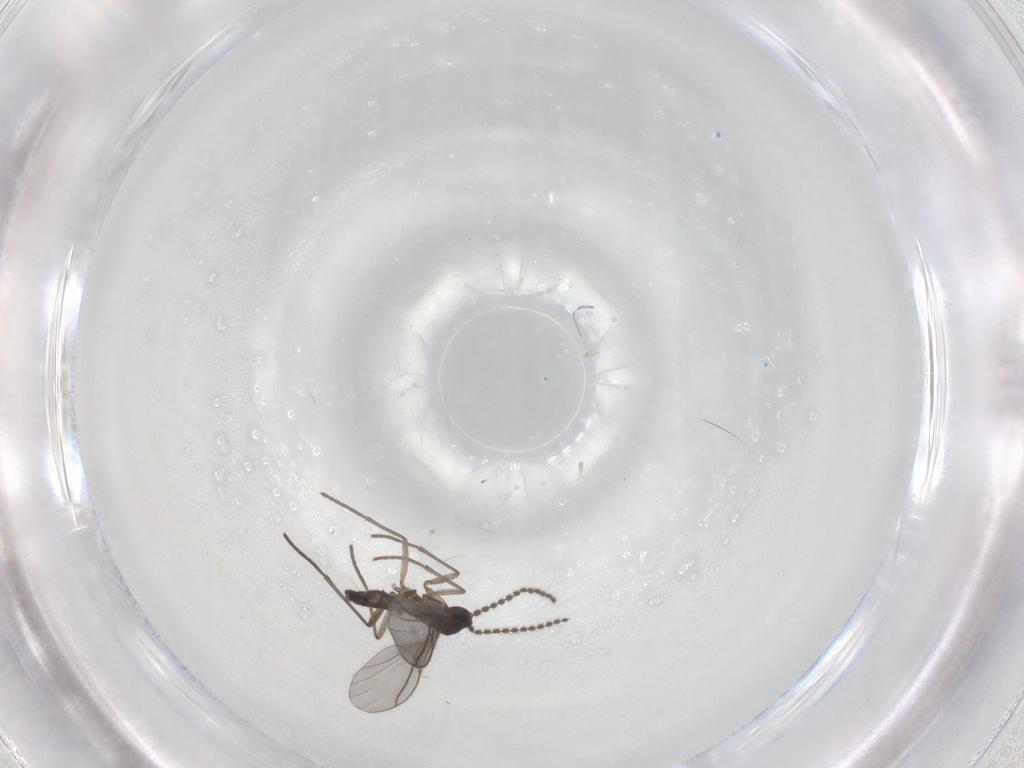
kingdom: Animalia
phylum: Arthropoda
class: Insecta
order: Diptera
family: Sciaridae
